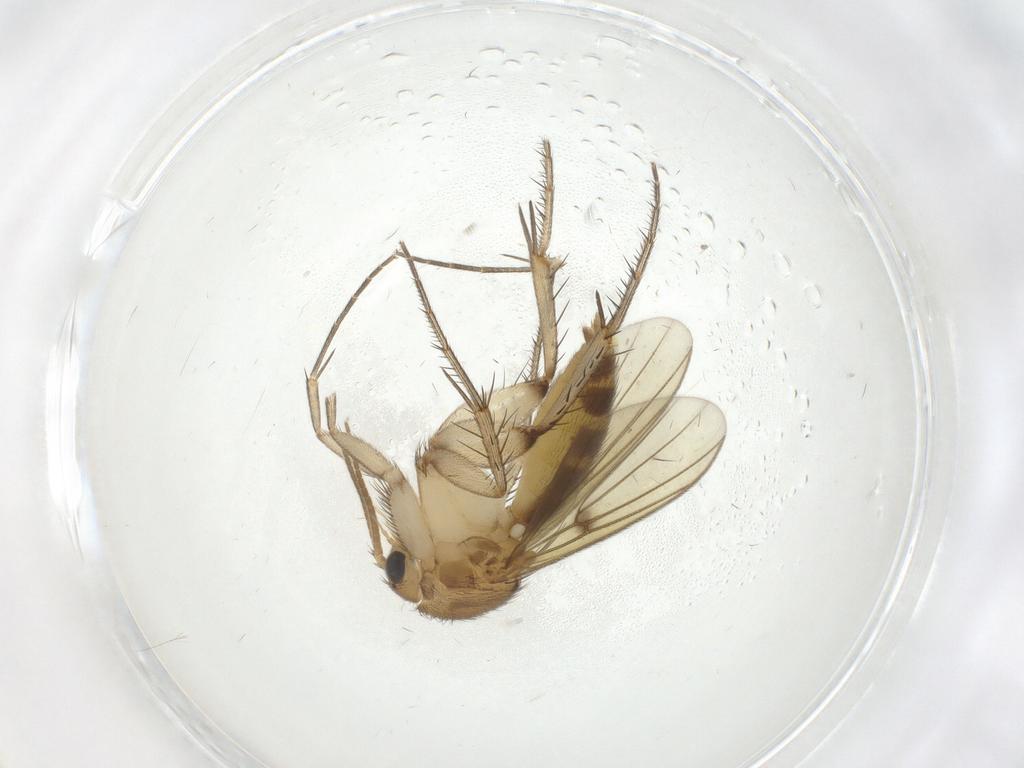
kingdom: Animalia
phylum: Arthropoda
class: Insecta
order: Diptera
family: Mycetophilidae
